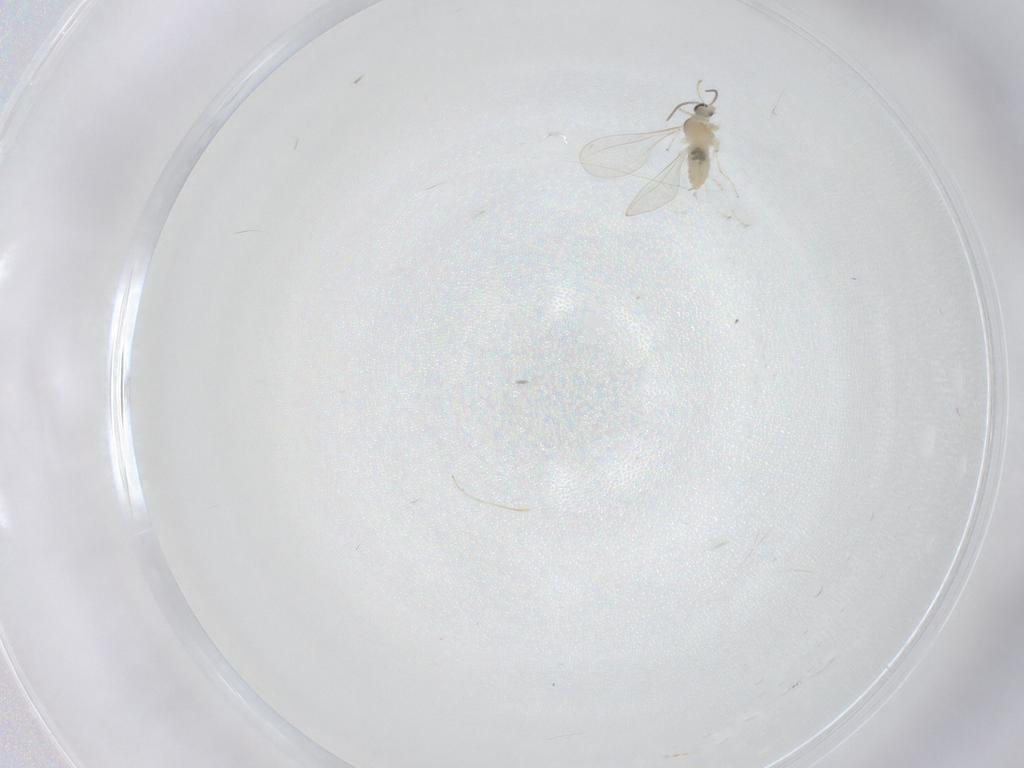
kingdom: Animalia
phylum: Arthropoda
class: Insecta
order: Diptera
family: Cecidomyiidae
